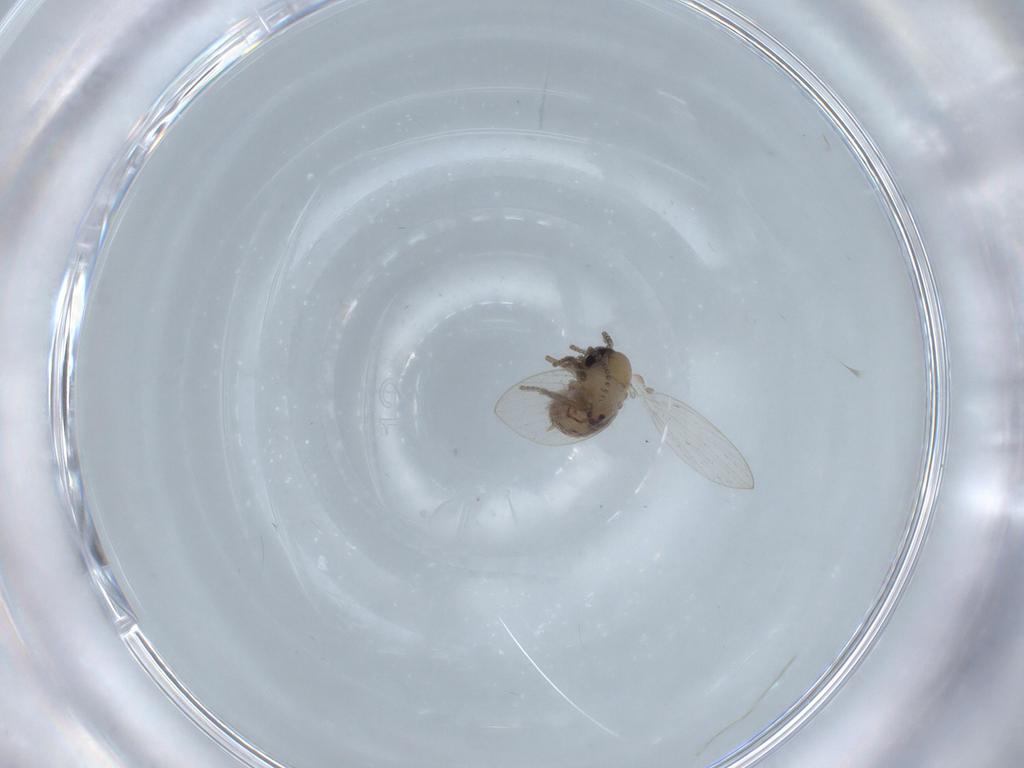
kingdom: Animalia
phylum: Arthropoda
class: Insecta
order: Diptera
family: Psychodidae
